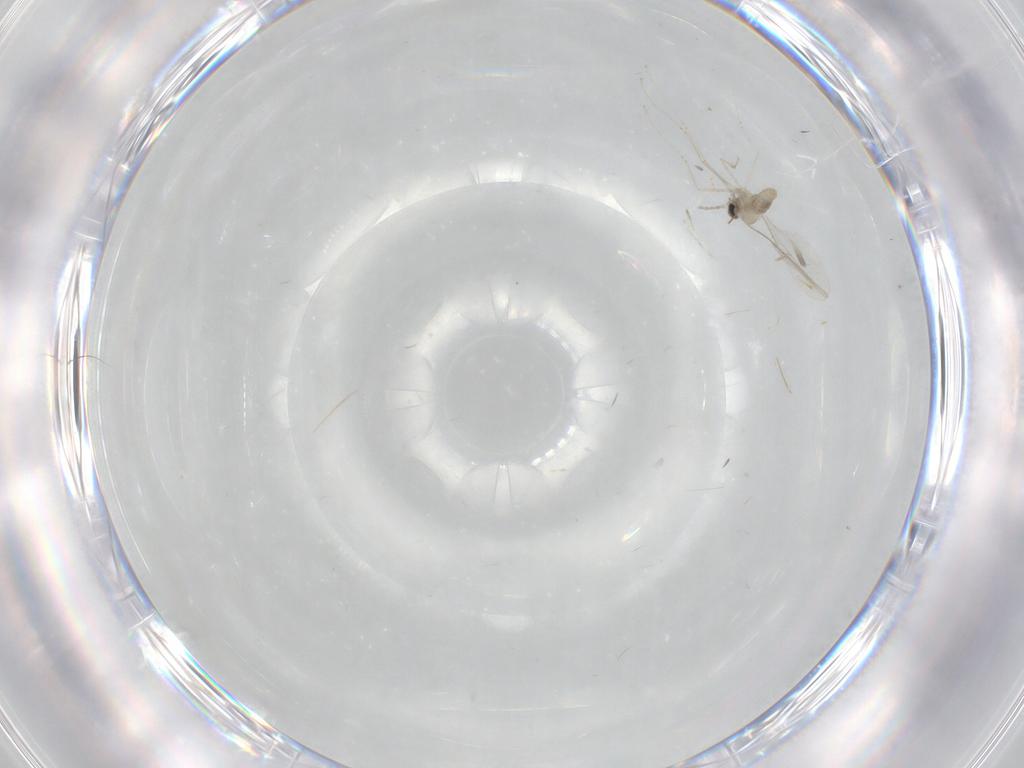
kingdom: Animalia
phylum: Arthropoda
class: Insecta
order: Diptera
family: Cecidomyiidae
